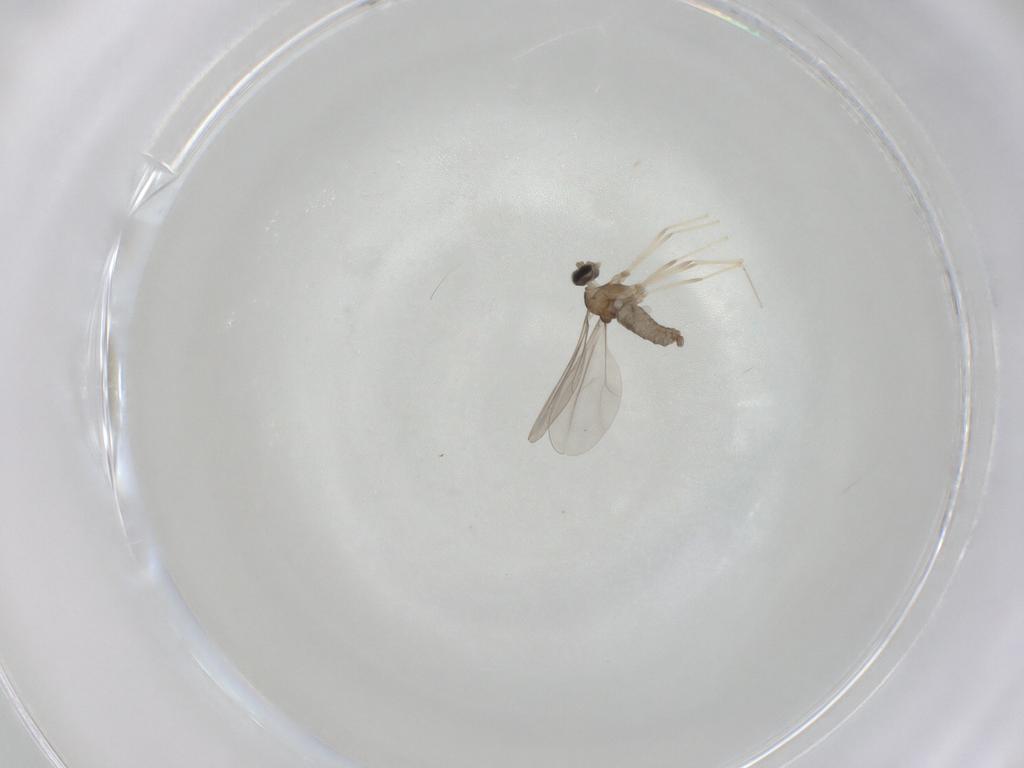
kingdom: Animalia
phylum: Arthropoda
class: Insecta
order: Diptera
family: Cecidomyiidae
